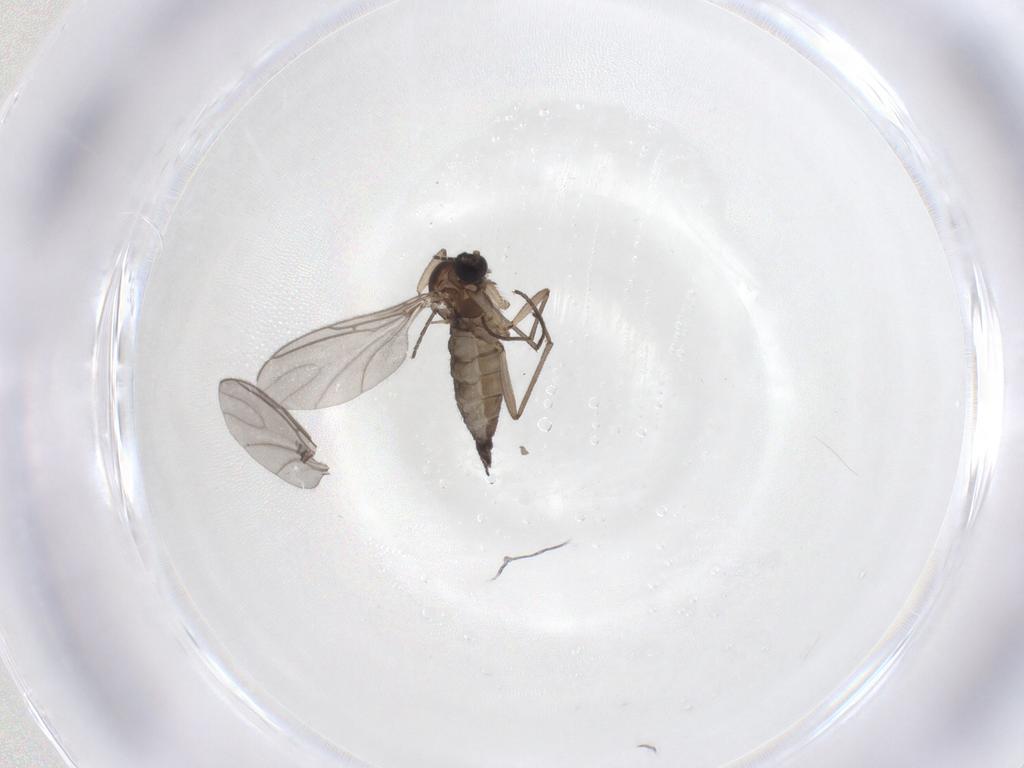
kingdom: Animalia
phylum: Arthropoda
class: Insecta
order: Diptera
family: Sciaridae
